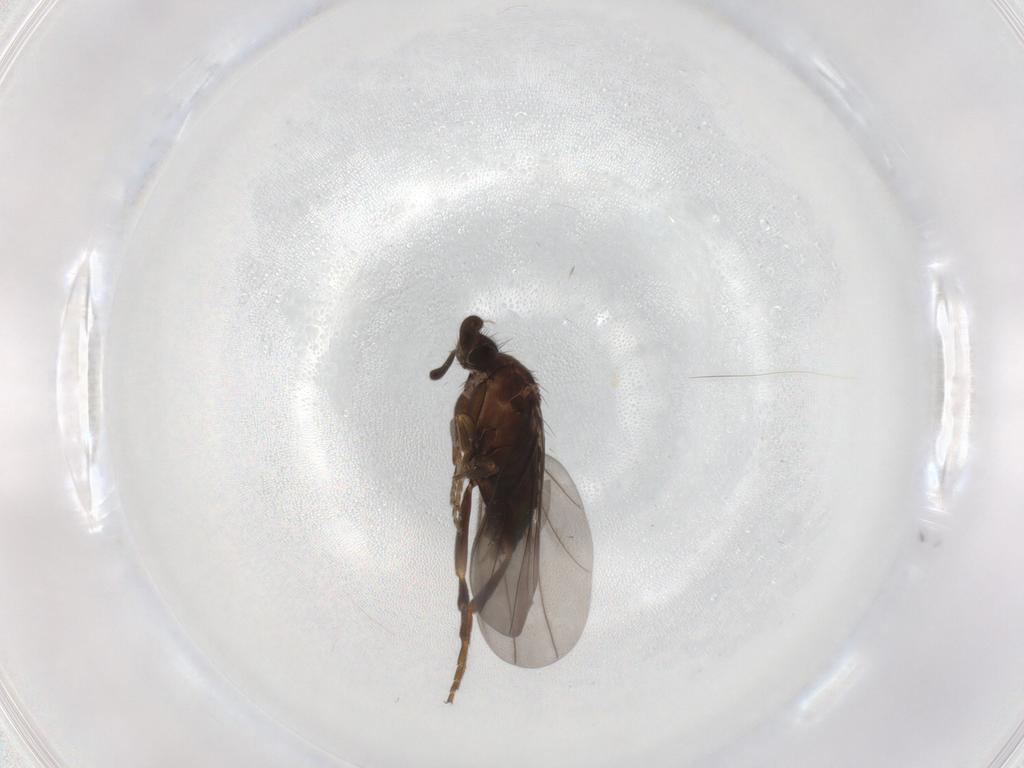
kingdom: Animalia
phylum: Arthropoda
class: Insecta
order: Diptera
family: Phoridae
